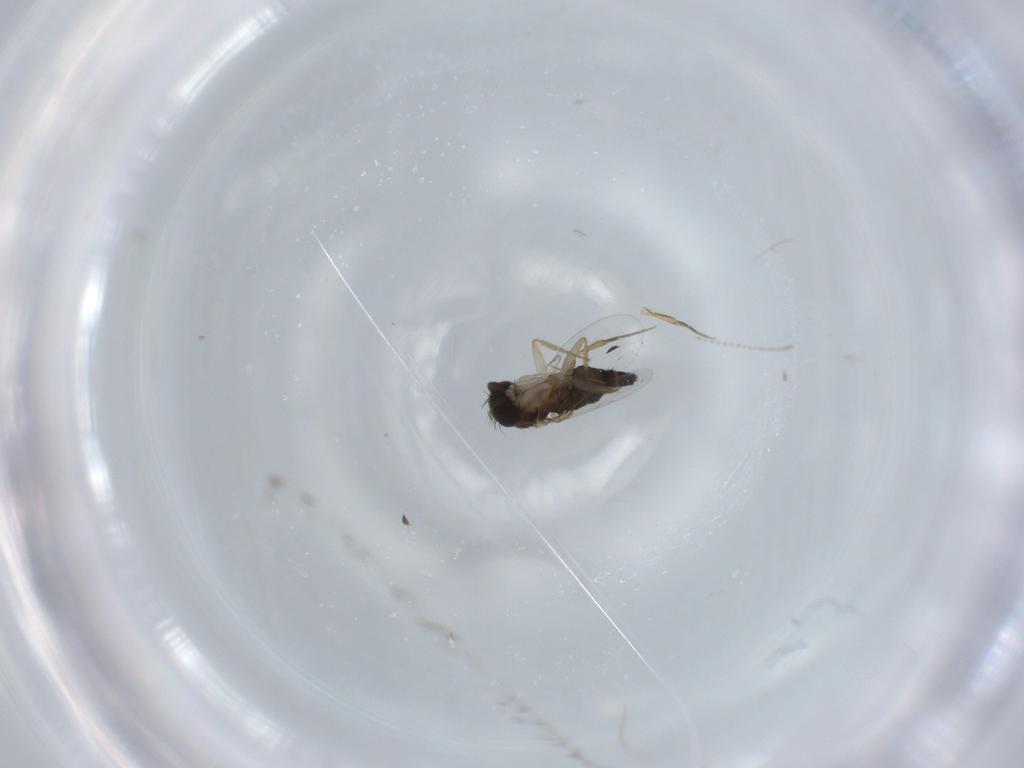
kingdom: Animalia
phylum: Arthropoda
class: Insecta
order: Diptera
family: Phoridae
